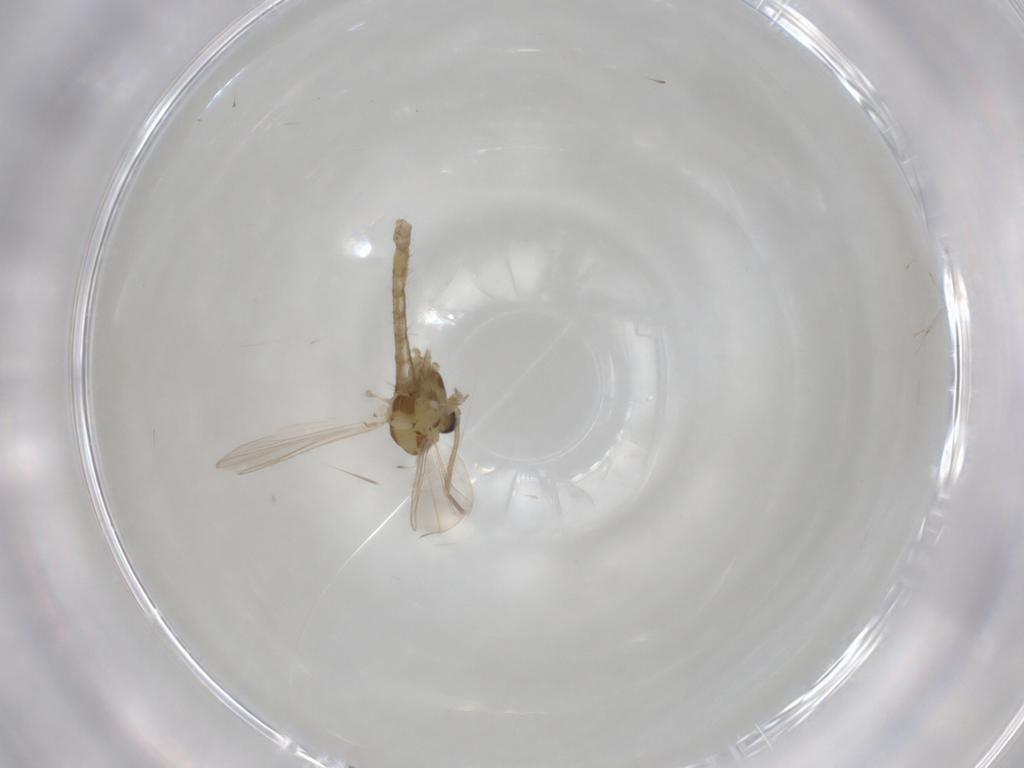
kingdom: Animalia
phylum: Arthropoda
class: Insecta
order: Diptera
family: Chironomidae
